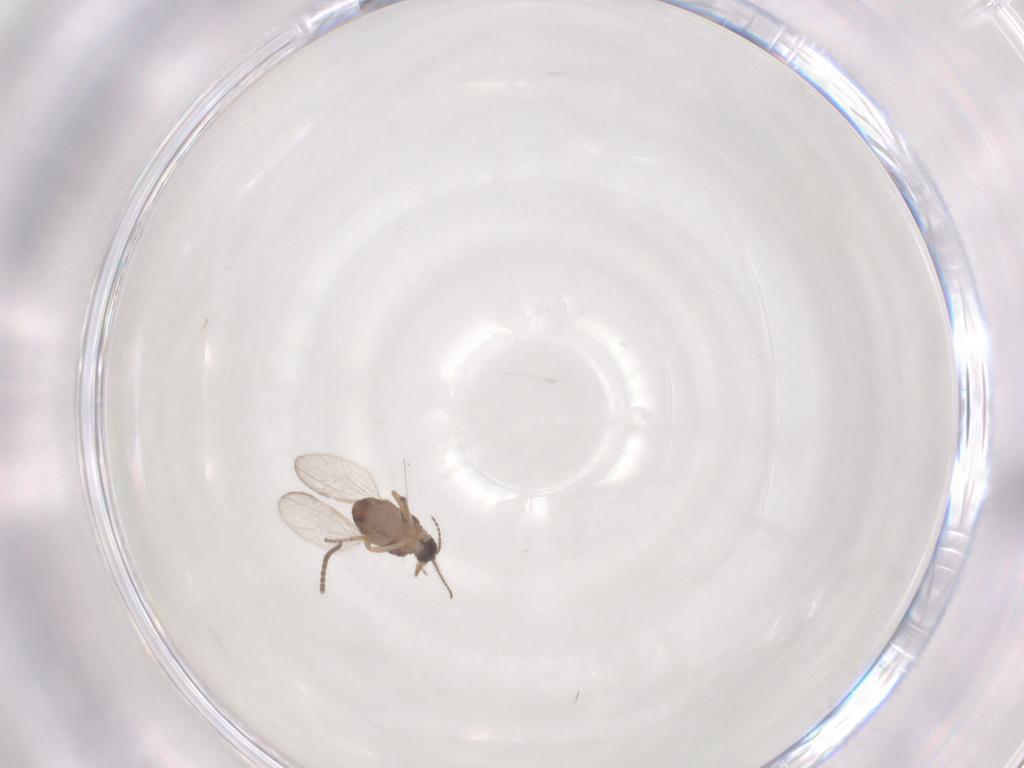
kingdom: Animalia
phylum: Arthropoda
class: Insecta
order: Diptera
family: Ceratopogonidae
